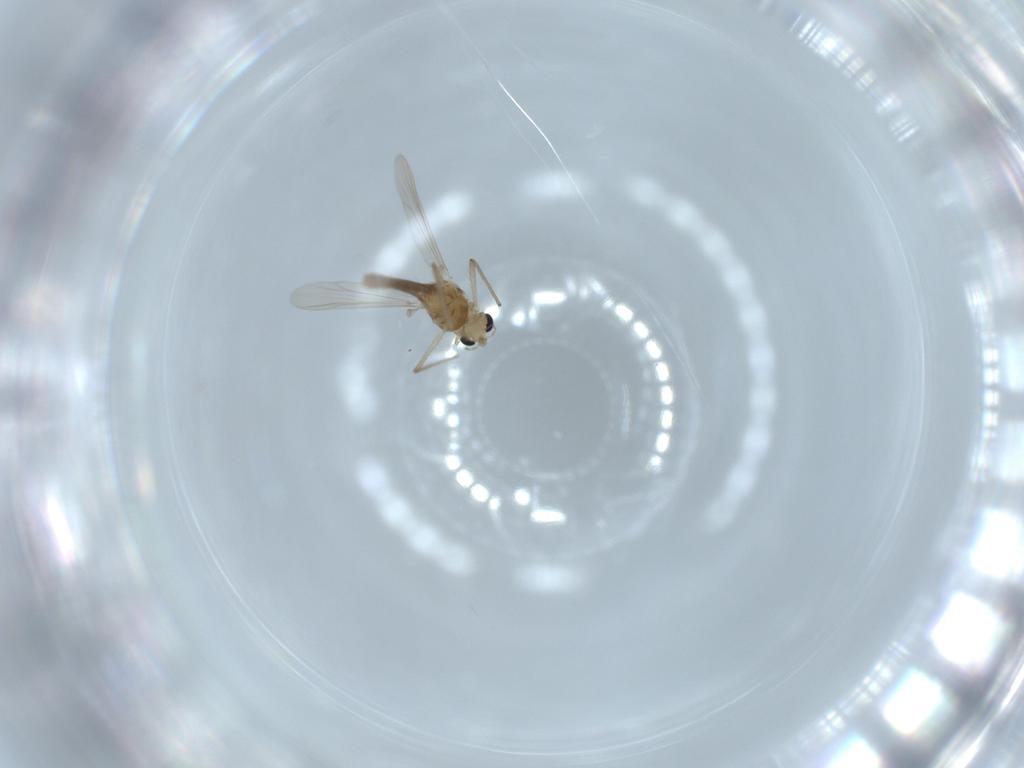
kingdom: Animalia
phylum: Arthropoda
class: Insecta
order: Diptera
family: Chironomidae
